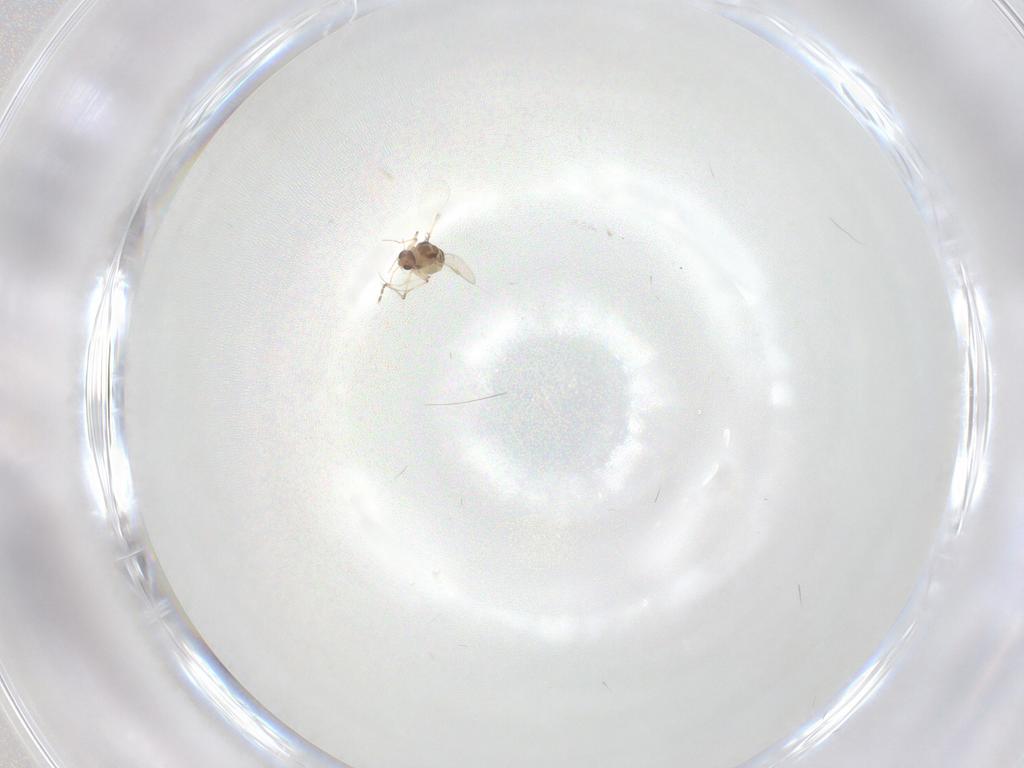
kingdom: Animalia
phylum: Arthropoda
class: Insecta
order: Diptera
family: Chironomidae
